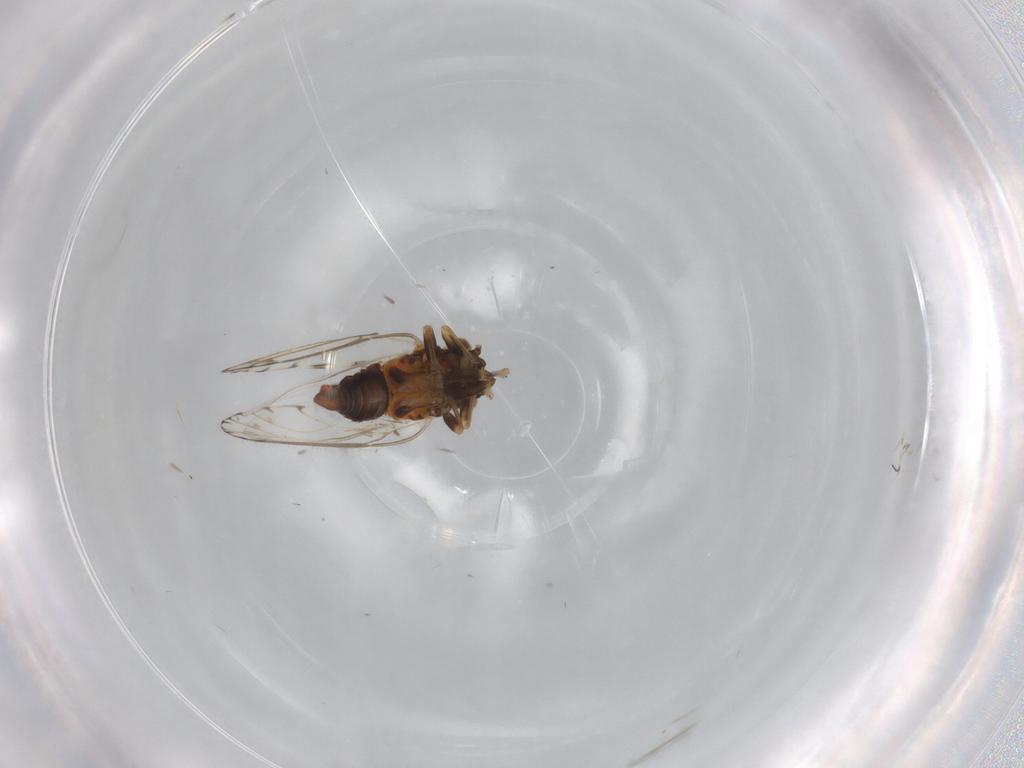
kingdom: Animalia
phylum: Arthropoda
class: Insecta
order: Hemiptera
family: Psyllidae
